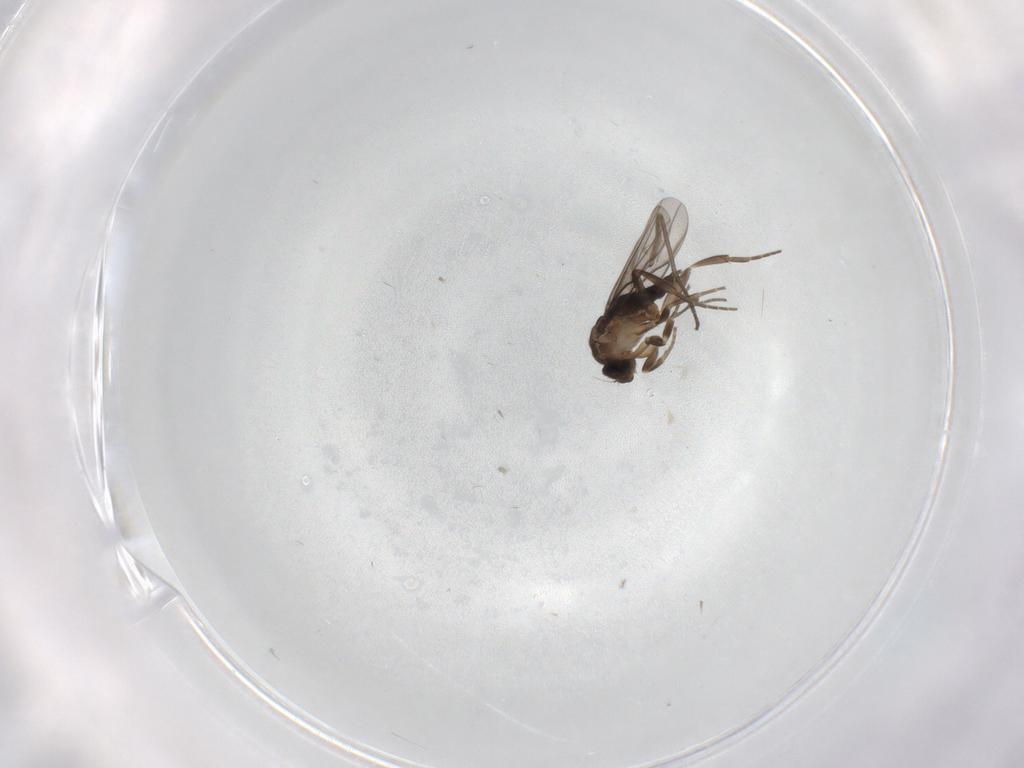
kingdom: Animalia
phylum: Arthropoda
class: Insecta
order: Diptera
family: Sciaridae
